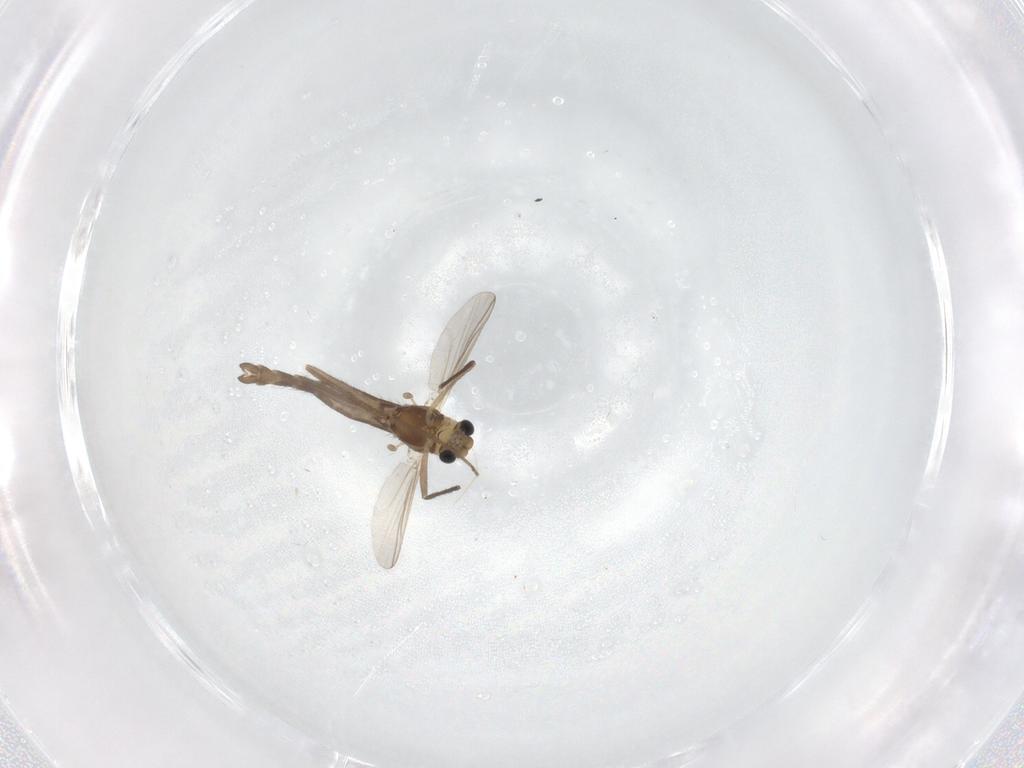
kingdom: Animalia
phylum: Arthropoda
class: Insecta
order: Diptera
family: Chironomidae
